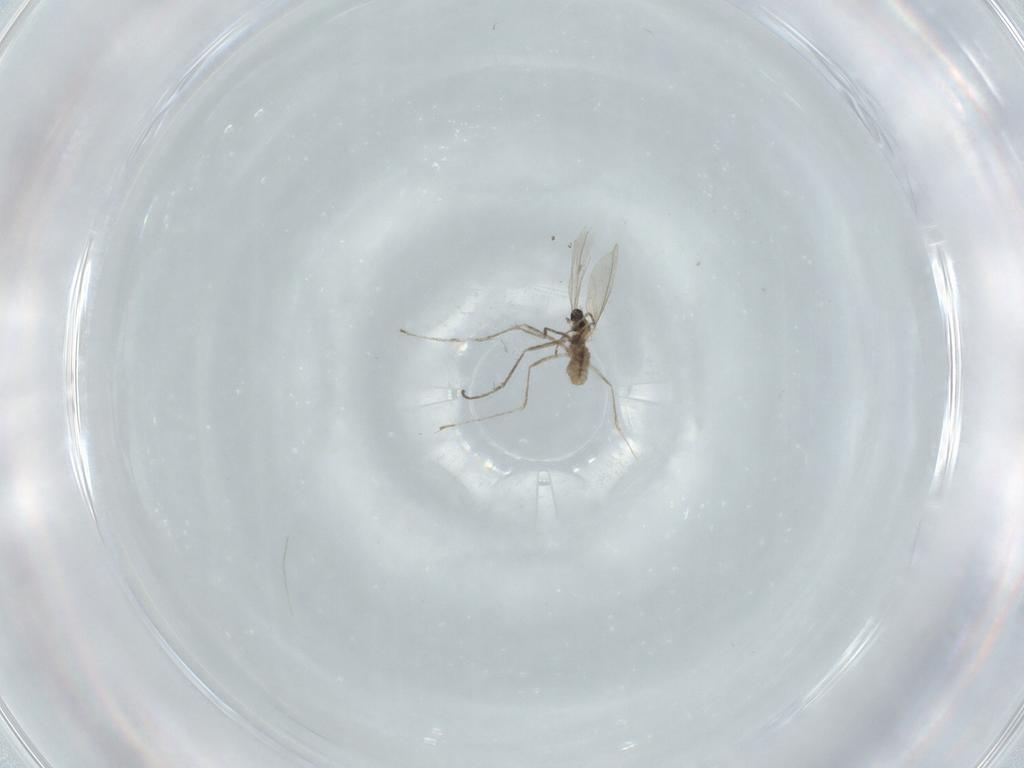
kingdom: Animalia
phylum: Arthropoda
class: Insecta
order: Diptera
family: Cecidomyiidae
